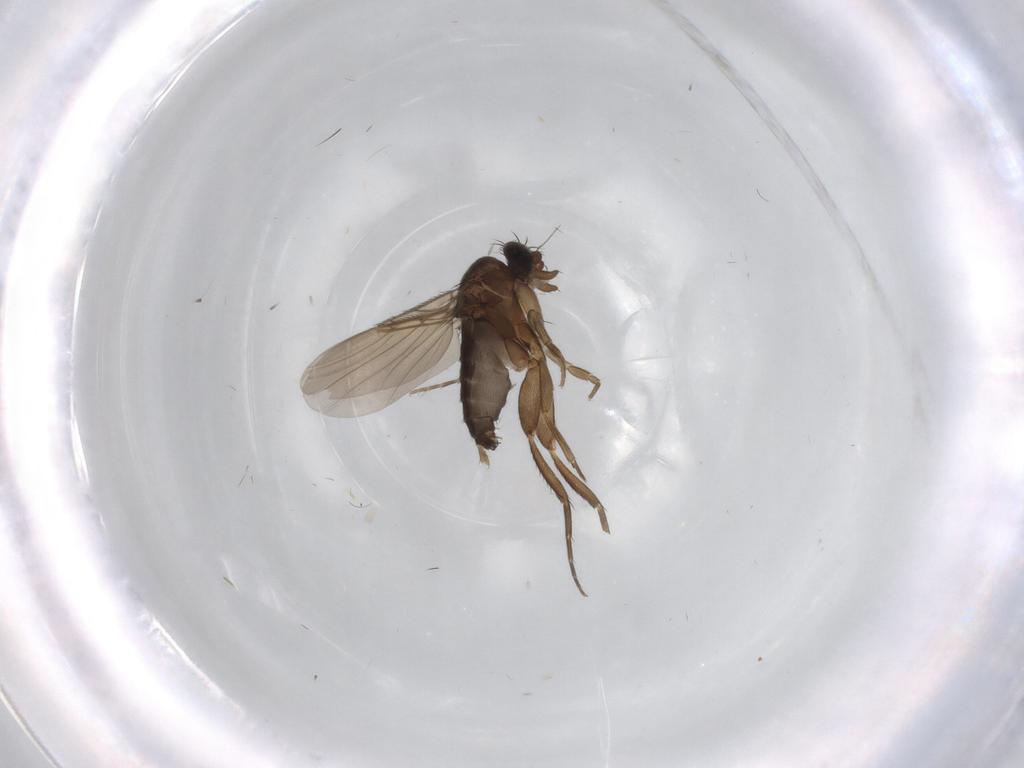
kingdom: Animalia
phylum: Arthropoda
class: Insecta
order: Diptera
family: Phoridae
